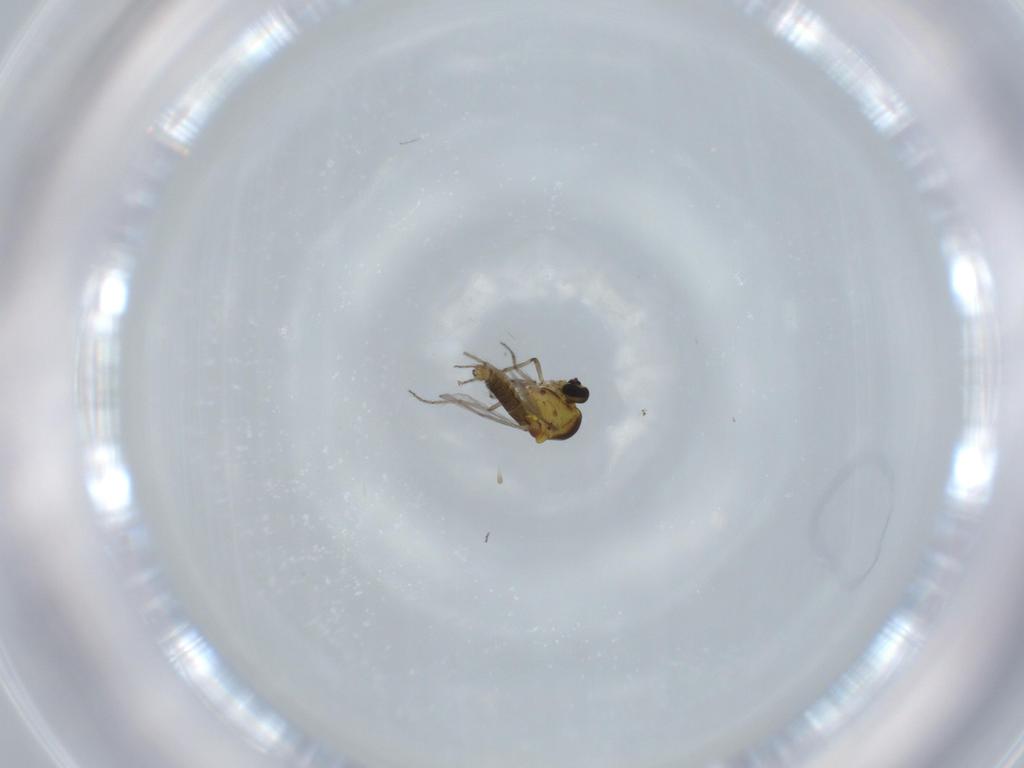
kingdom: Animalia
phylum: Arthropoda
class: Insecta
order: Diptera
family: Ceratopogonidae
